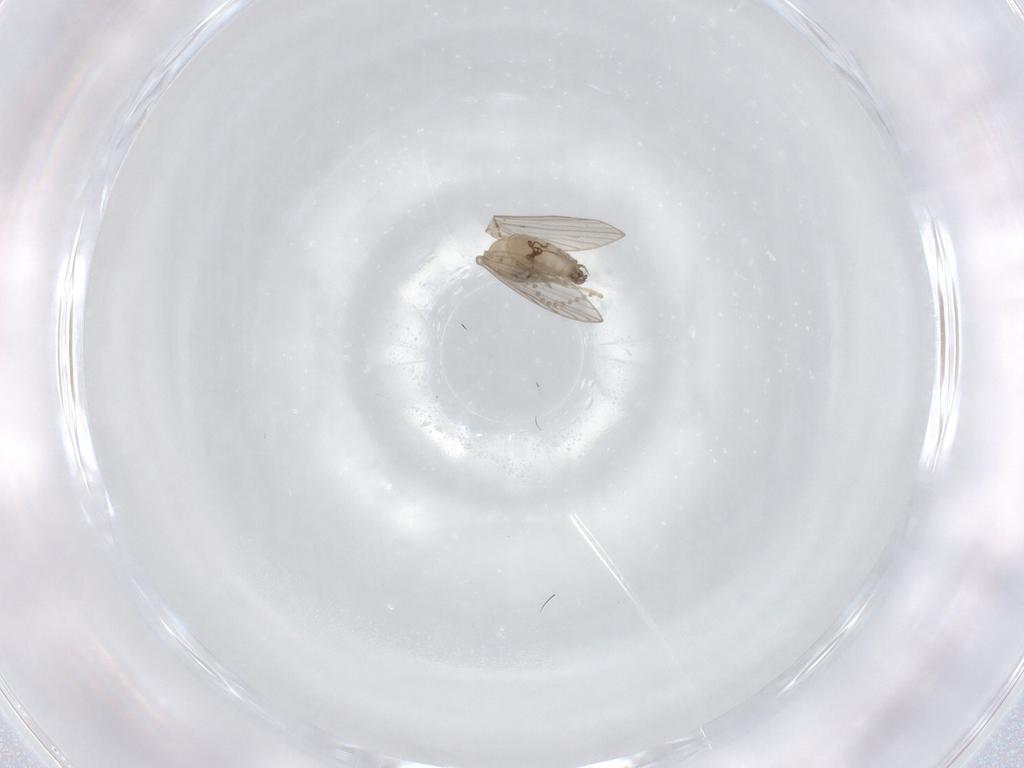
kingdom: Animalia
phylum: Arthropoda
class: Insecta
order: Diptera
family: Psychodidae
